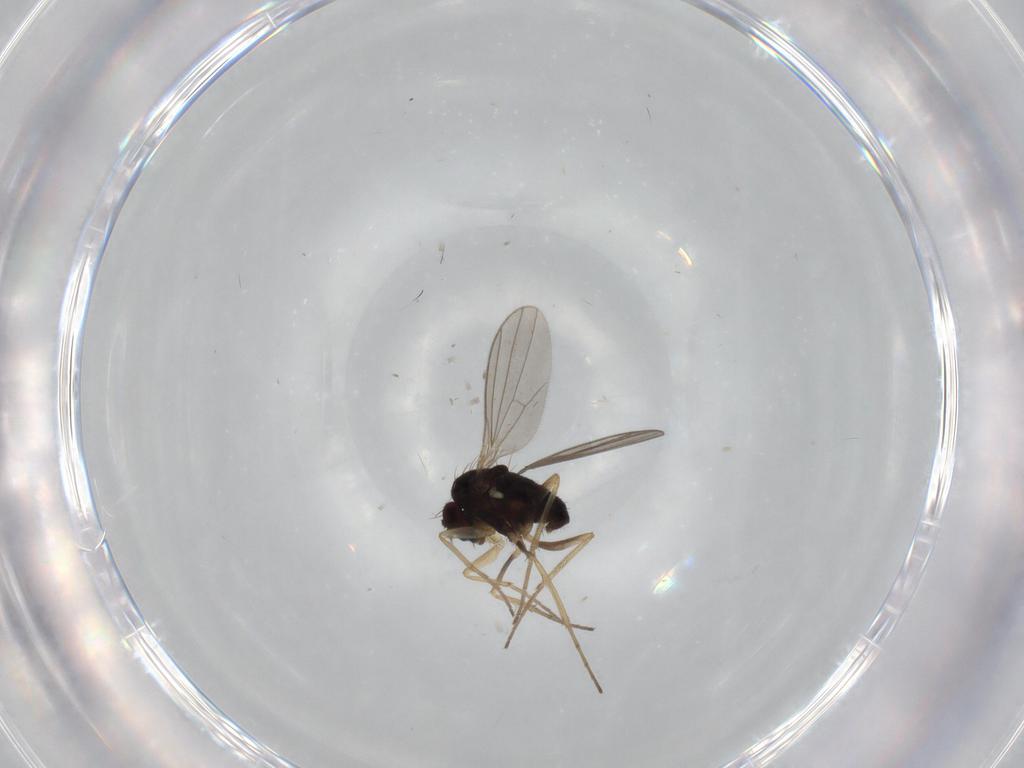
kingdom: Animalia
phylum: Arthropoda
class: Insecta
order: Diptera
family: Dolichopodidae
